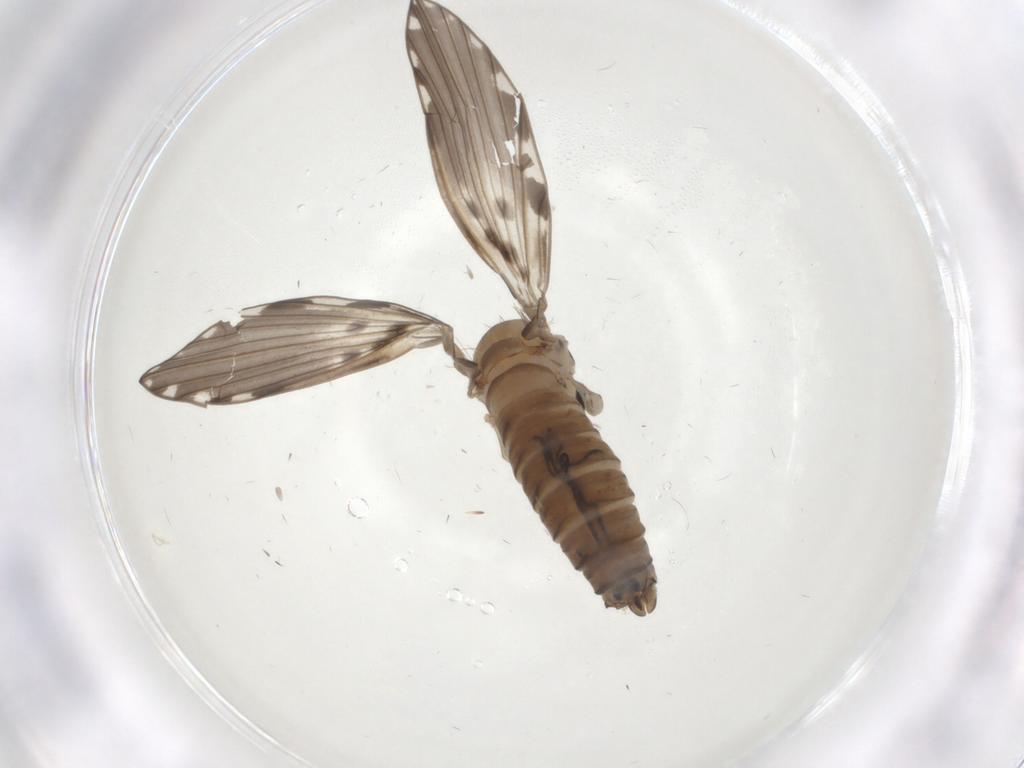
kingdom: Animalia
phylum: Arthropoda
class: Insecta
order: Diptera
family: Psychodidae
